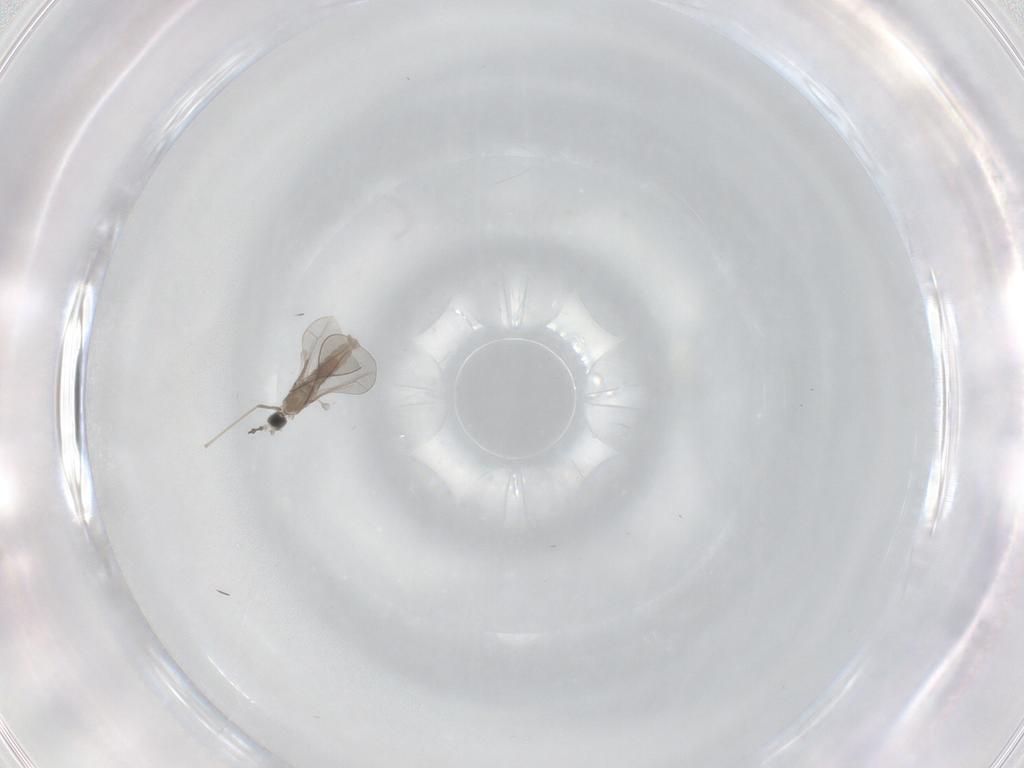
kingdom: Animalia
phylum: Arthropoda
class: Insecta
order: Diptera
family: Cecidomyiidae
